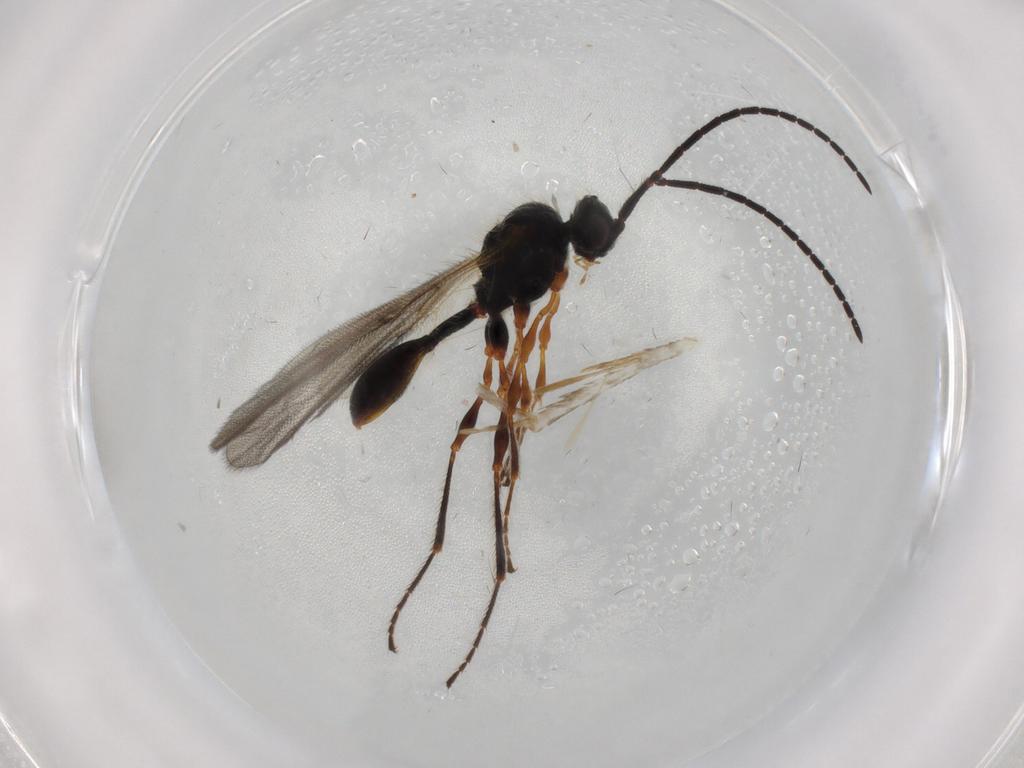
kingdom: Animalia
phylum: Arthropoda
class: Insecta
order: Hymenoptera
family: Diapriidae
